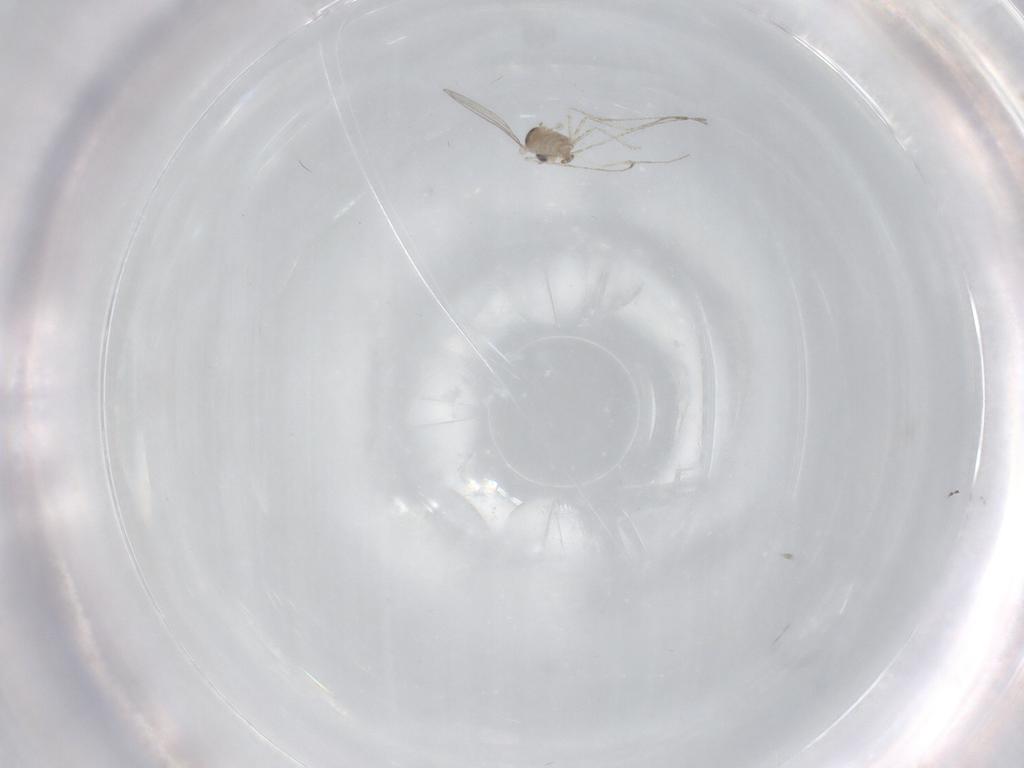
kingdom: Animalia
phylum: Arthropoda
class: Insecta
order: Diptera
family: Cecidomyiidae
